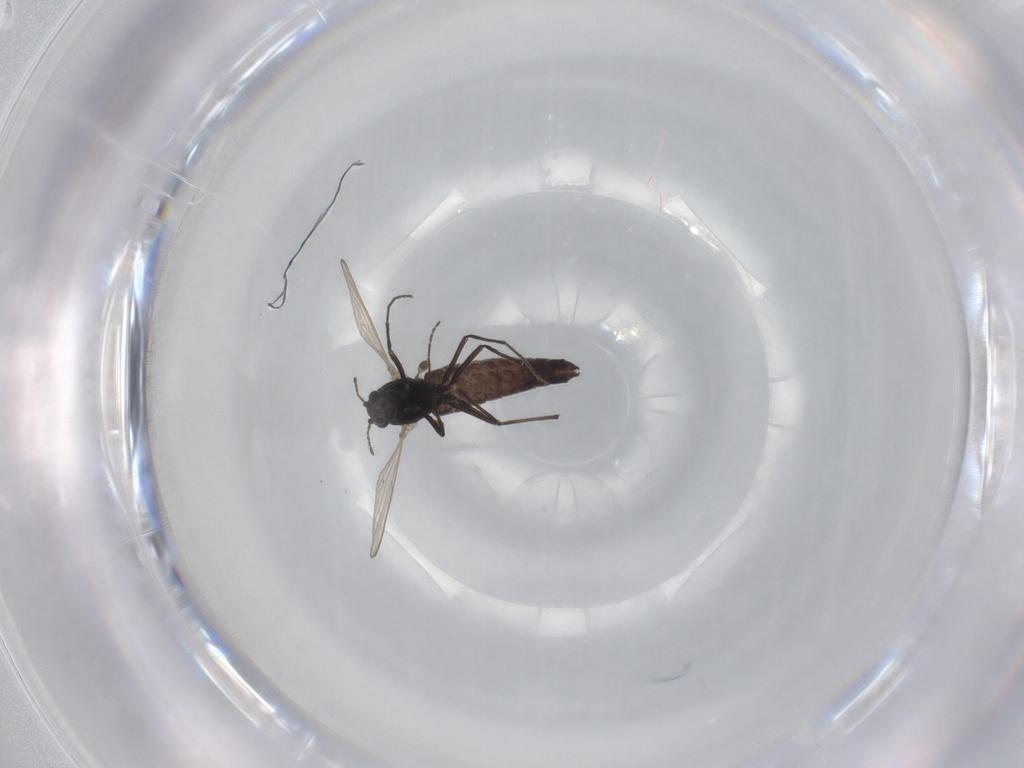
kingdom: Animalia
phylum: Arthropoda
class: Insecta
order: Diptera
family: Chironomidae
